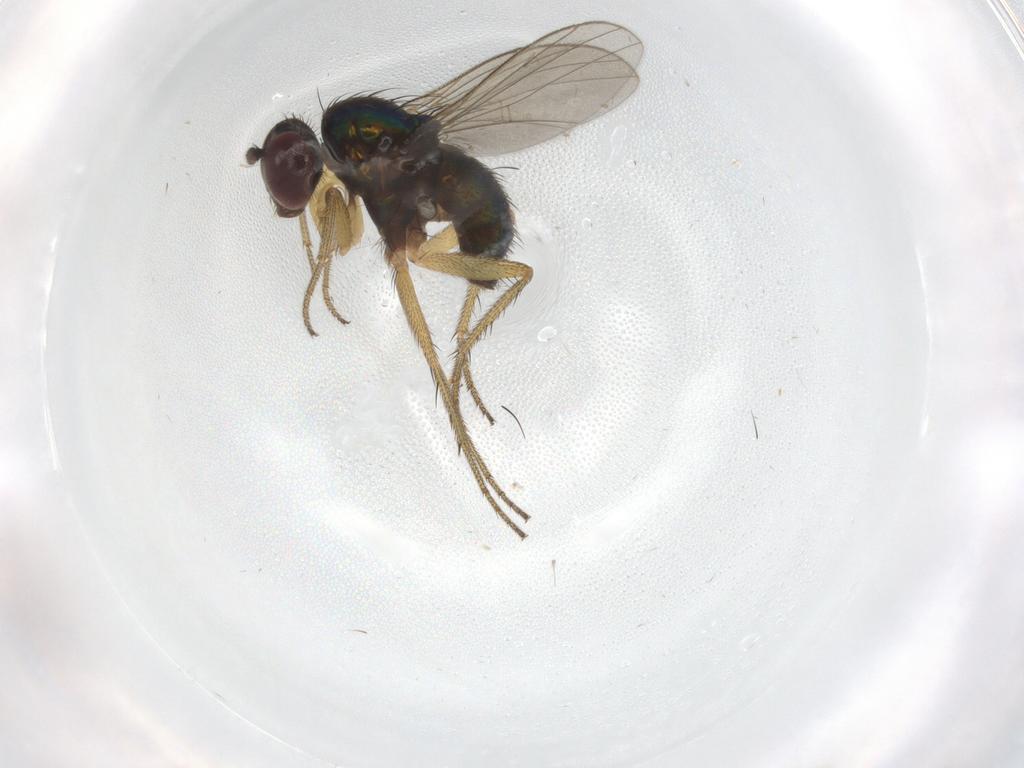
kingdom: Animalia
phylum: Arthropoda
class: Insecta
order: Diptera
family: Dolichopodidae
